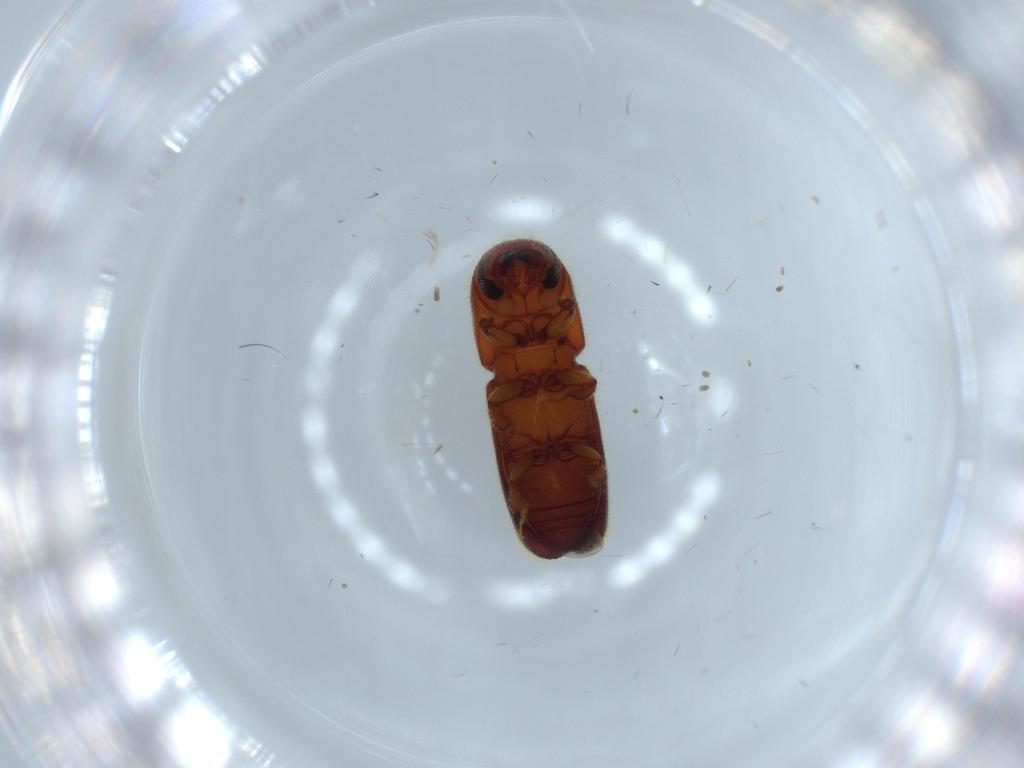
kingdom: Animalia
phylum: Arthropoda
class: Insecta
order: Coleoptera
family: Curculionidae
